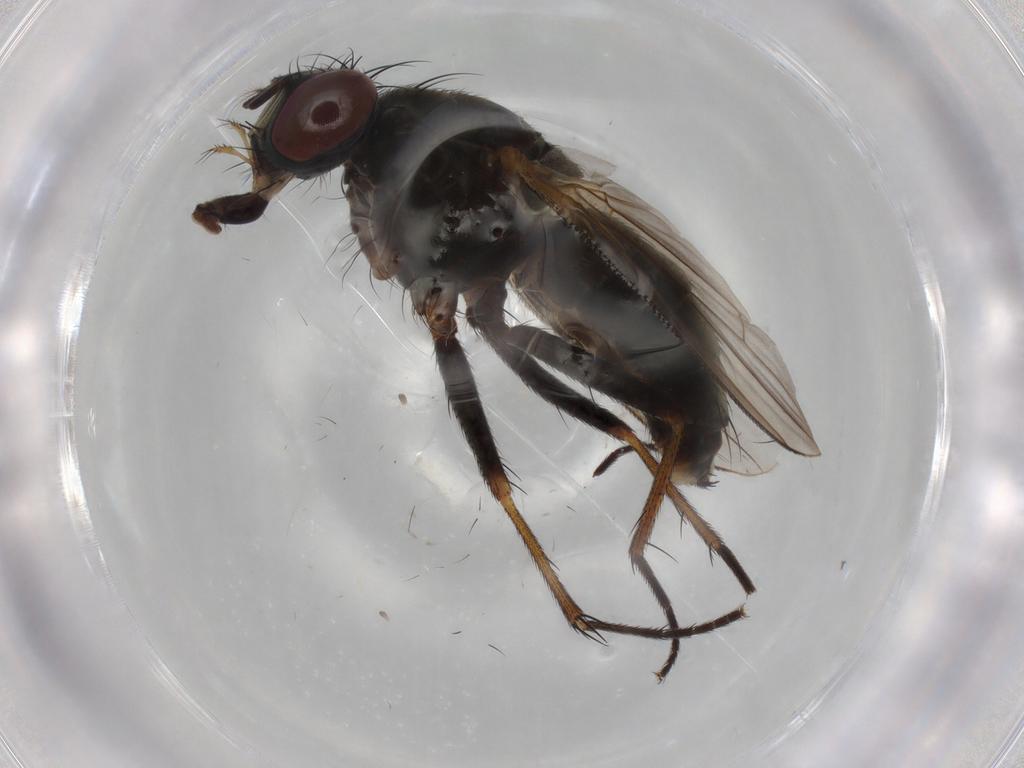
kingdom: Animalia
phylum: Arthropoda
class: Insecta
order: Diptera
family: Muscidae
